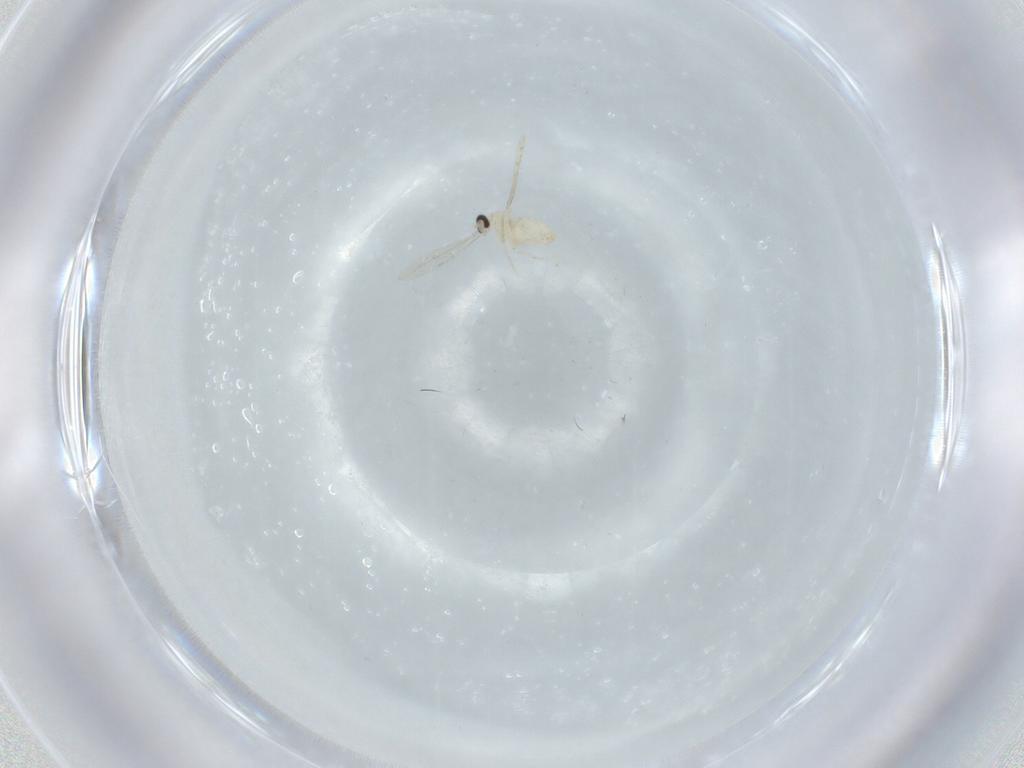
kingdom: Animalia
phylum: Arthropoda
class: Insecta
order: Diptera
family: Cecidomyiidae
